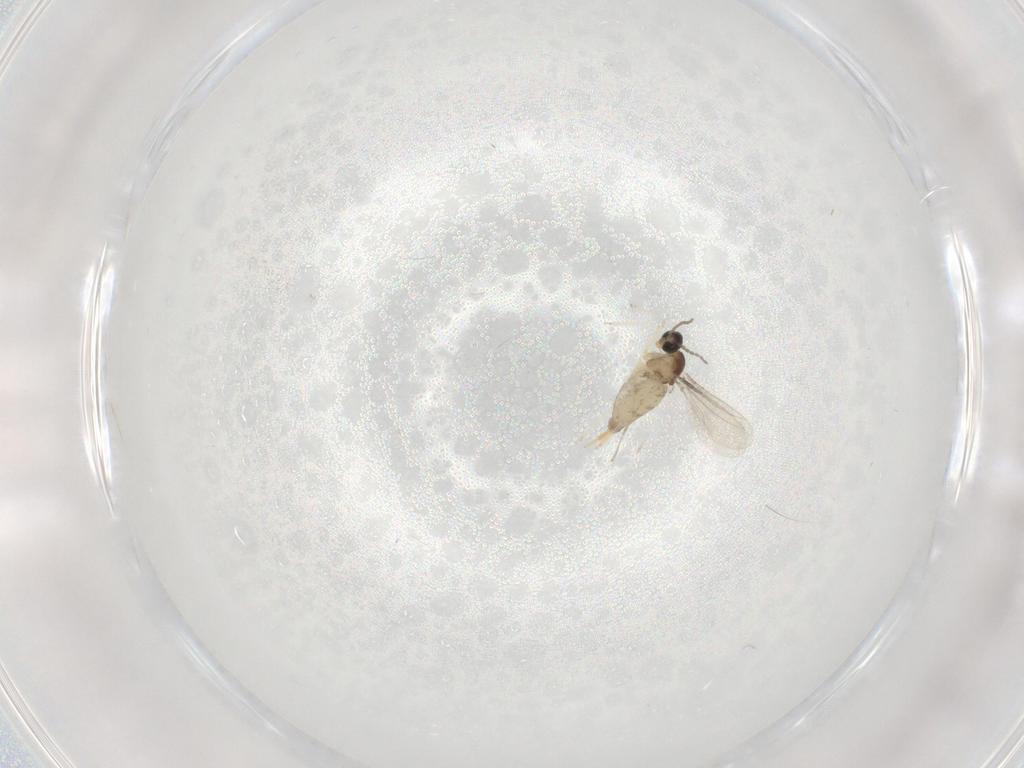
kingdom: Animalia
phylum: Arthropoda
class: Insecta
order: Diptera
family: Cecidomyiidae
